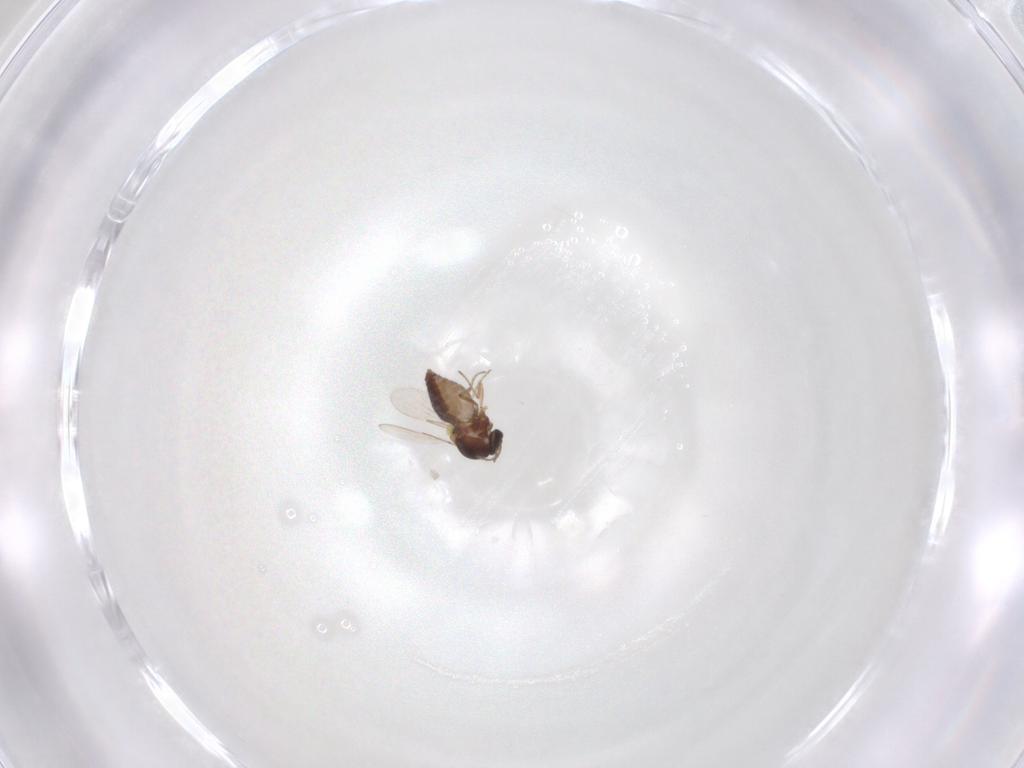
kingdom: Animalia
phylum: Arthropoda
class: Insecta
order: Diptera
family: Ceratopogonidae
